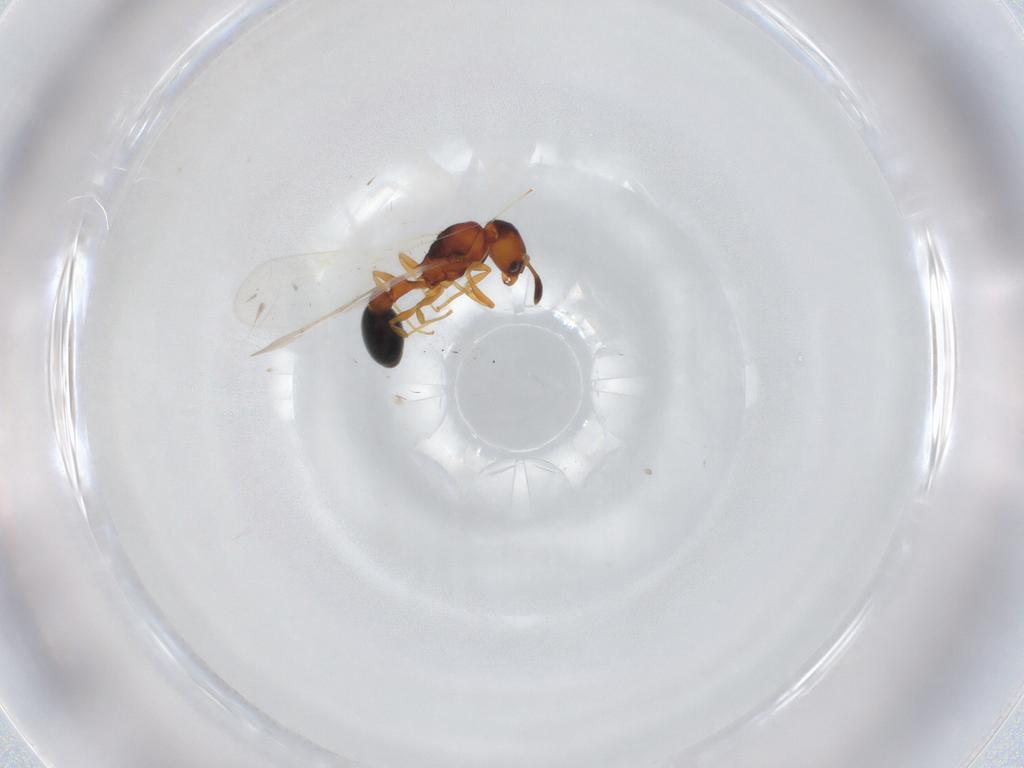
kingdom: Animalia
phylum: Arthropoda
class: Insecta
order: Hymenoptera
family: Formicidae
